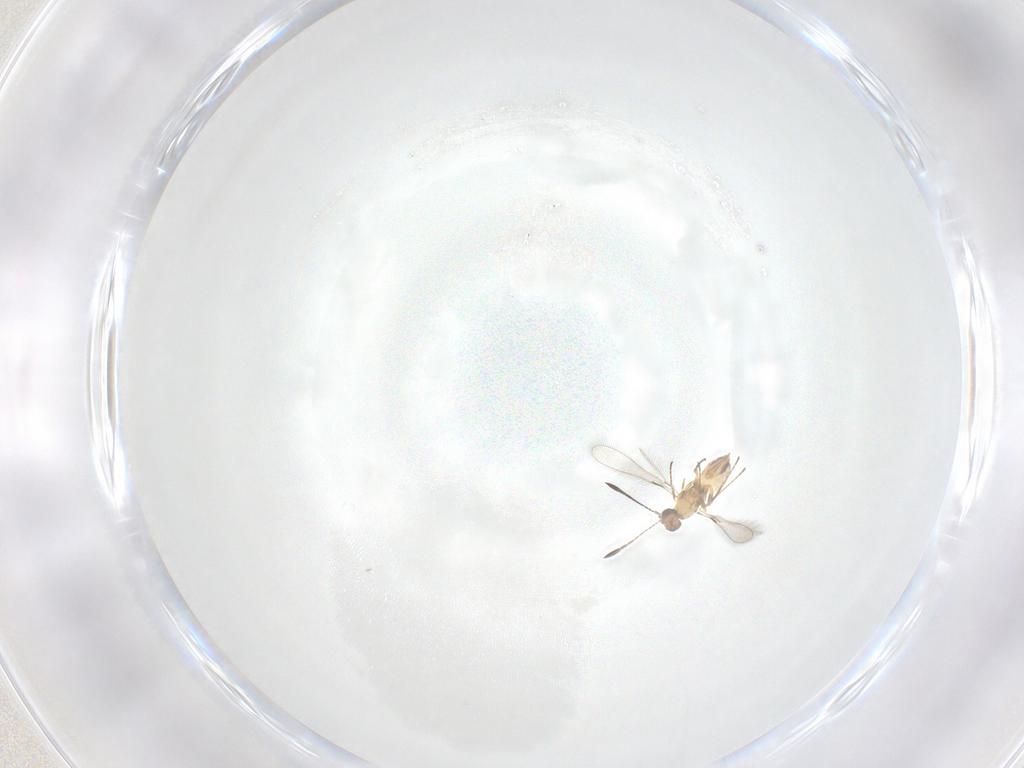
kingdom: Animalia
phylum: Arthropoda
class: Insecta
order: Hymenoptera
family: Mymaridae
